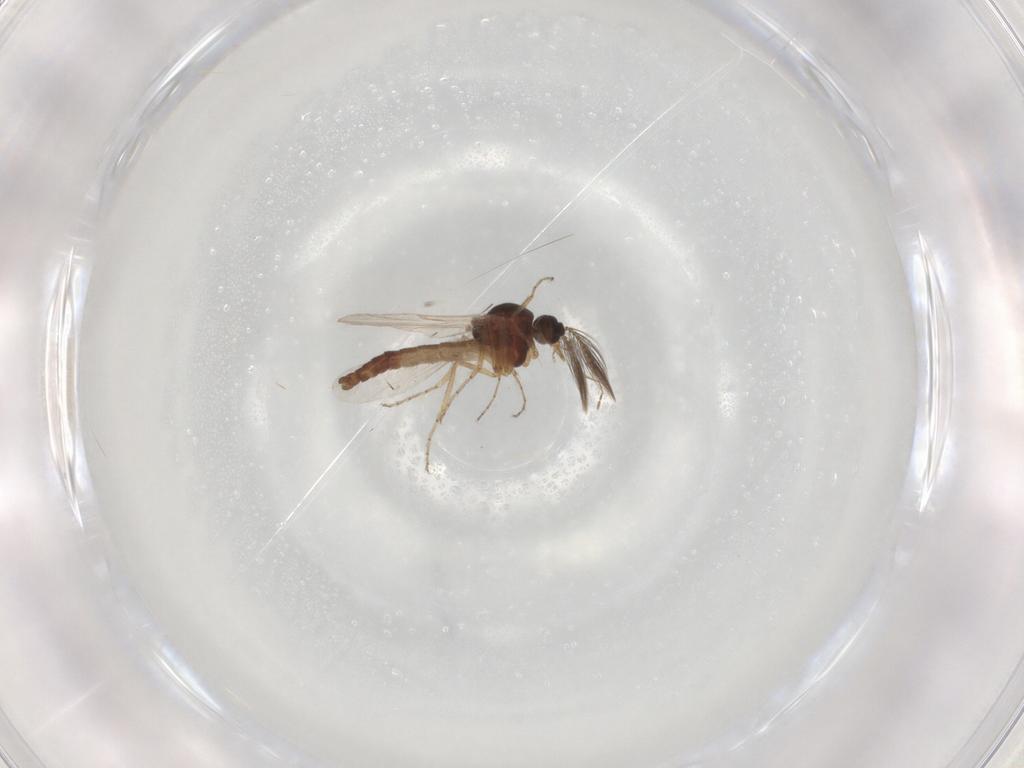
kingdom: Animalia
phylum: Arthropoda
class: Insecta
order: Diptera
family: Ceratopogonidae
